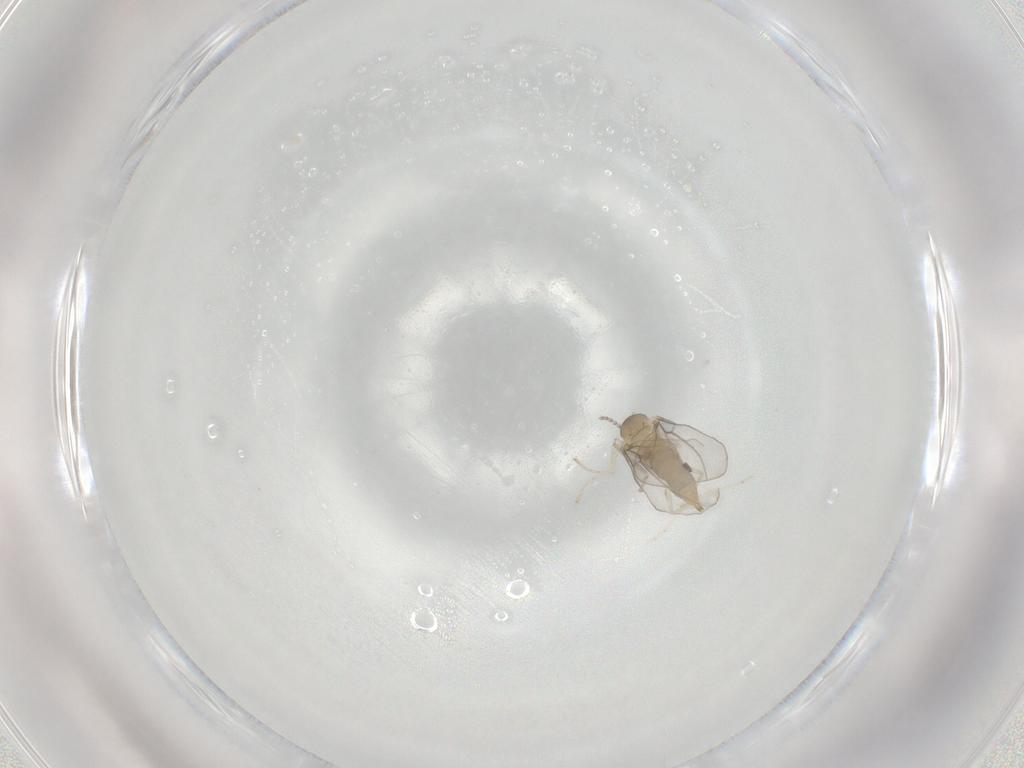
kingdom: Animalia
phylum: Arthropoda
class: Insecta
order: Diptera
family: Cecidomyiidae
